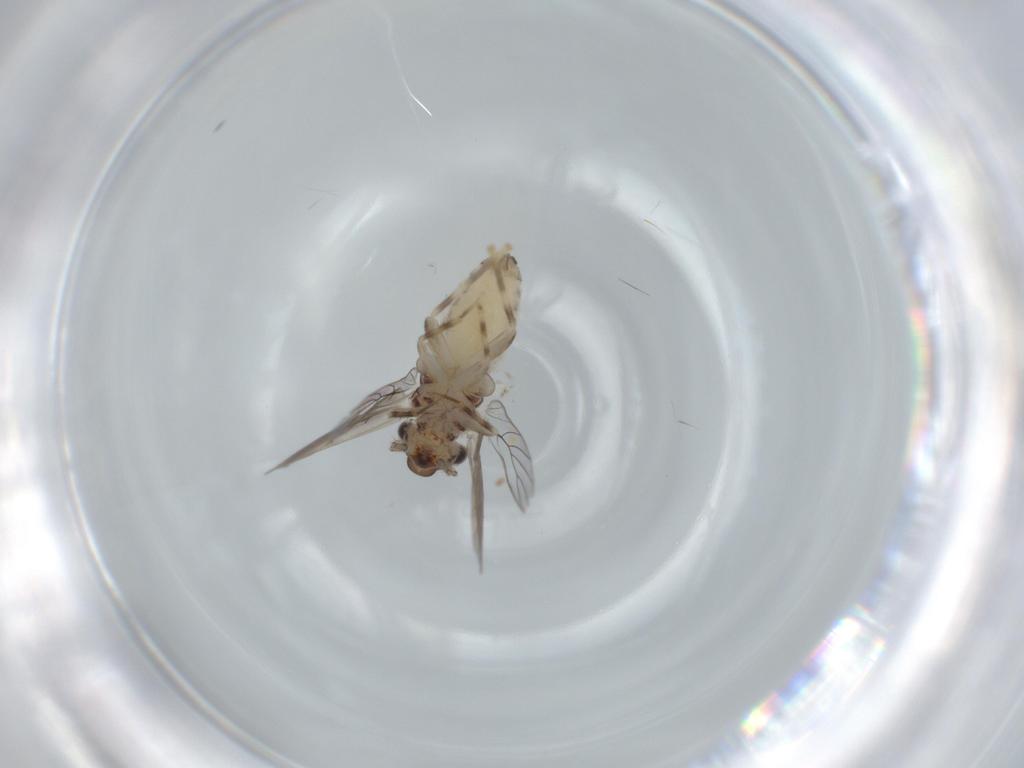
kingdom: Animalia
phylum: Arthropoda
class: Insecta
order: Psocodea
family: Lepidopsocidae
